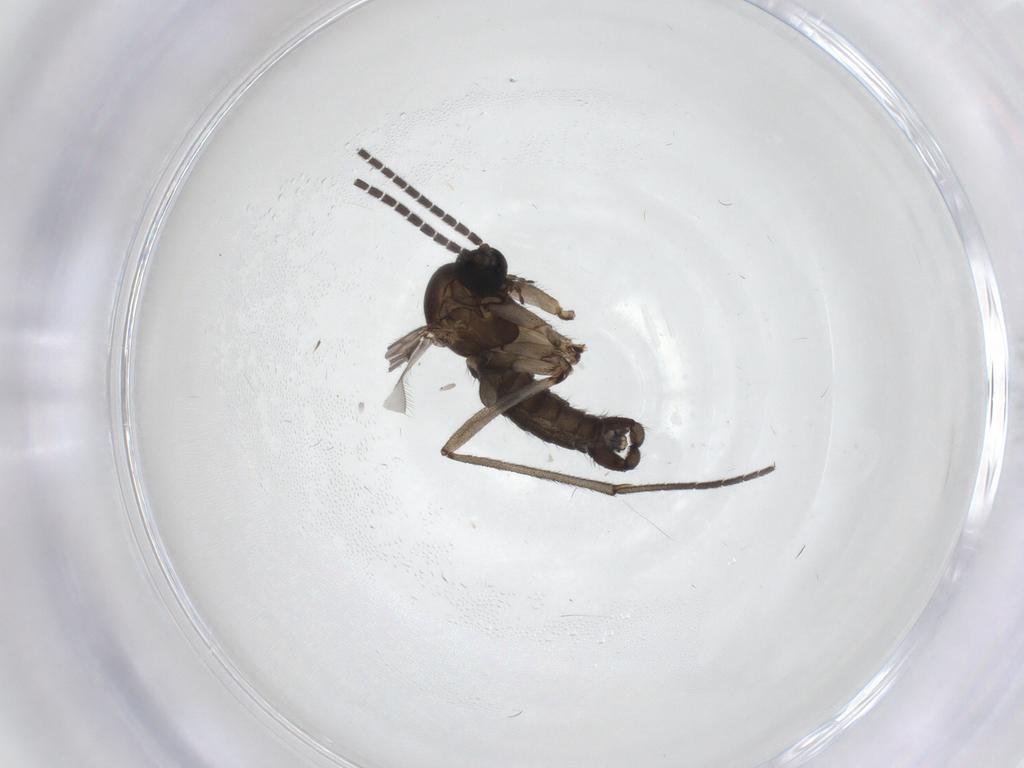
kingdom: Animalia
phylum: Arthropoda
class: Insecta
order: Diptera
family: Sciaridae
